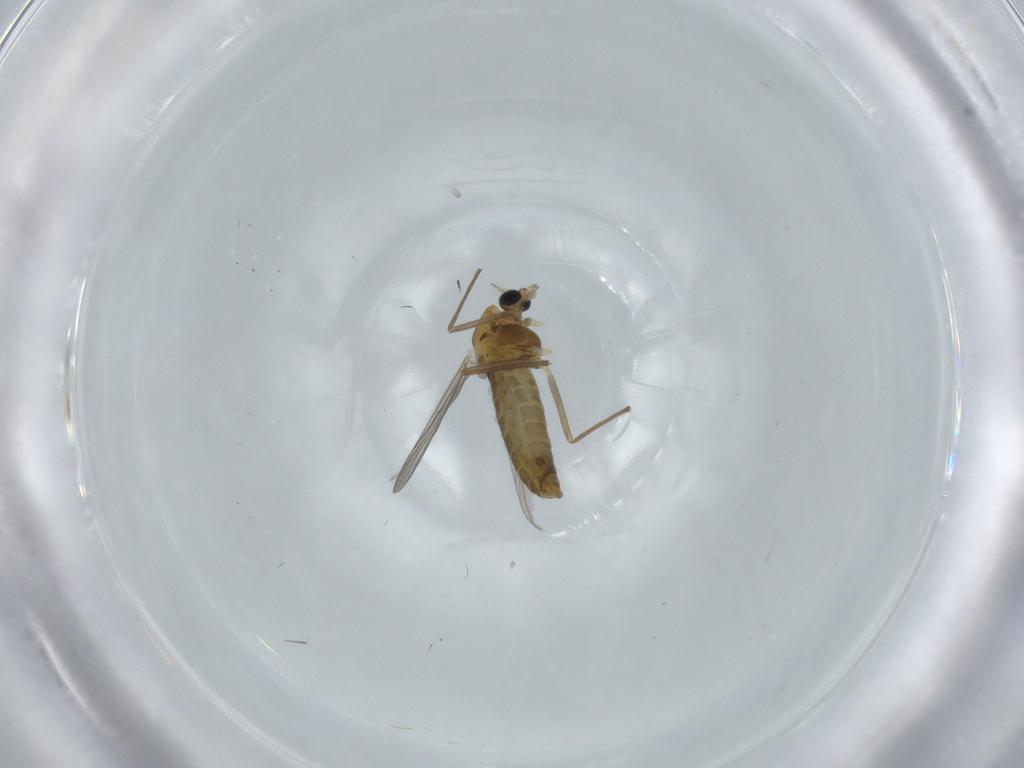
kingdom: Animalia
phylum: Arthropoda
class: Insecta
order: Diptera
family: Chironomidae
